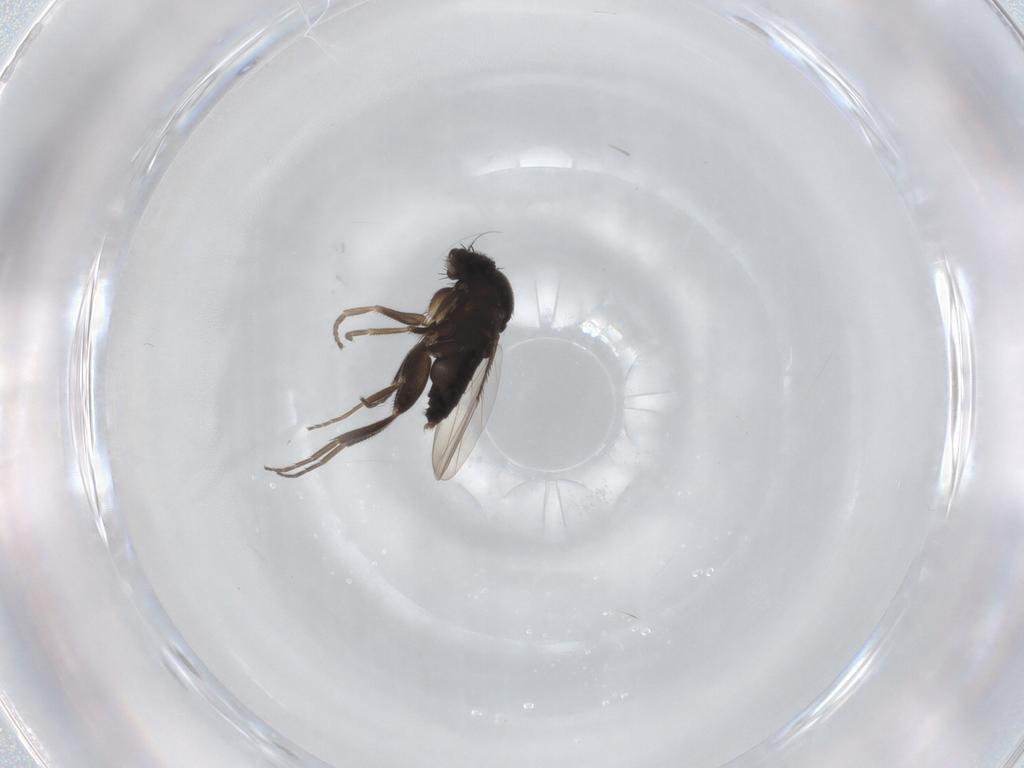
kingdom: Animalia
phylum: Arthropoda
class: Insecta
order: Diptera
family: Phoridae
